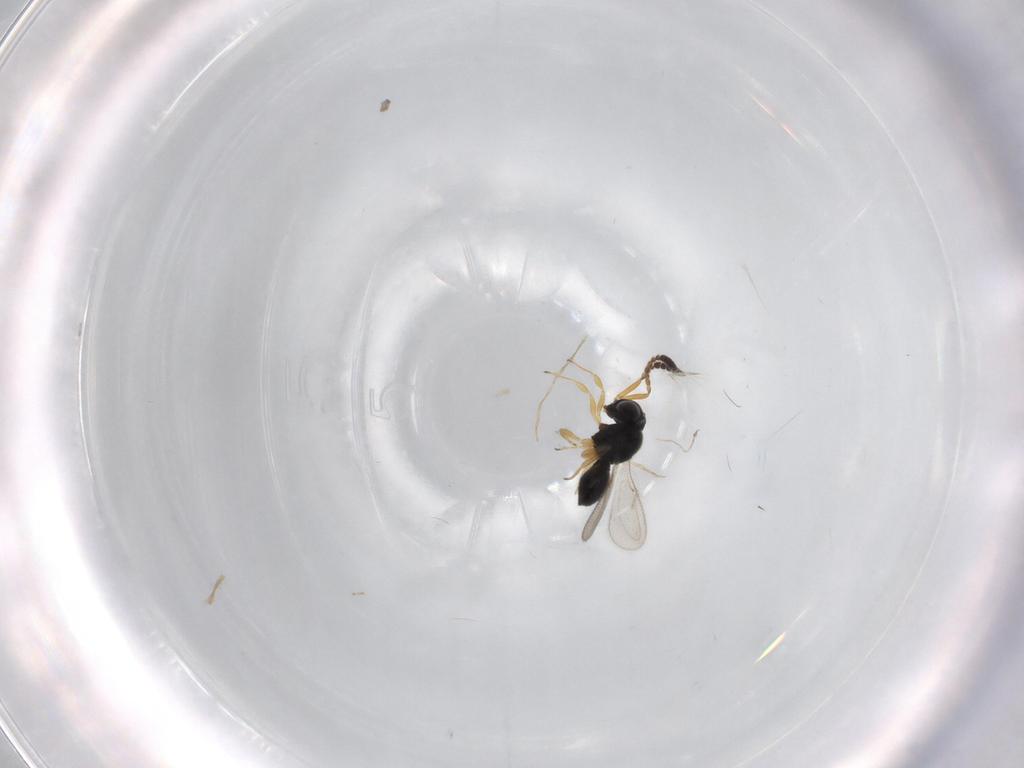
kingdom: Animalia
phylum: Arthropoda
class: Insecta
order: Hymenoptera
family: Scelionidae
